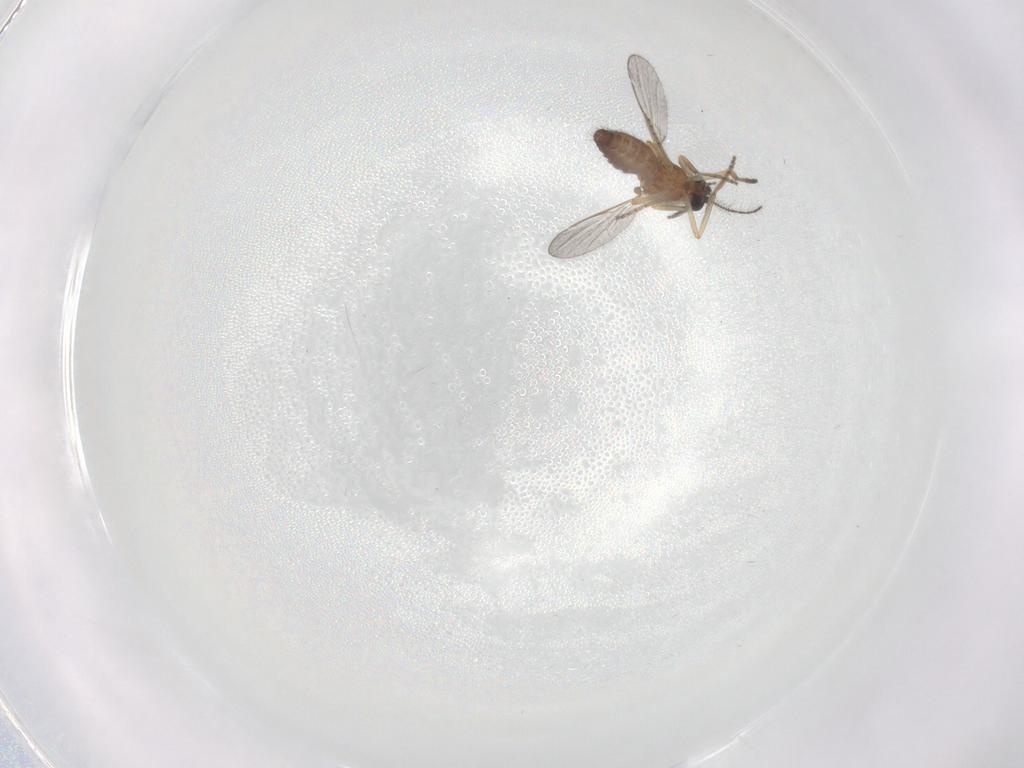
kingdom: Animalia
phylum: Arthropoda
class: Insecta
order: Diptera
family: Ceratopogonidae
